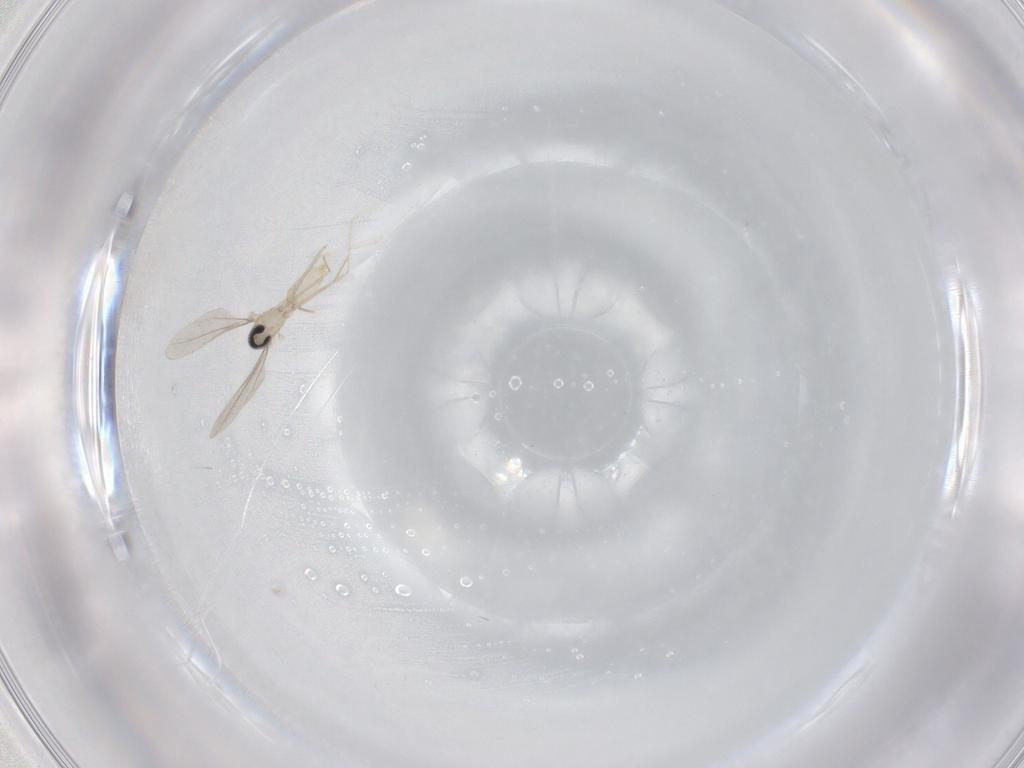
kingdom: Animalia
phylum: Arthropoda
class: Insecta
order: Diptera
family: Cecidomyiidae
